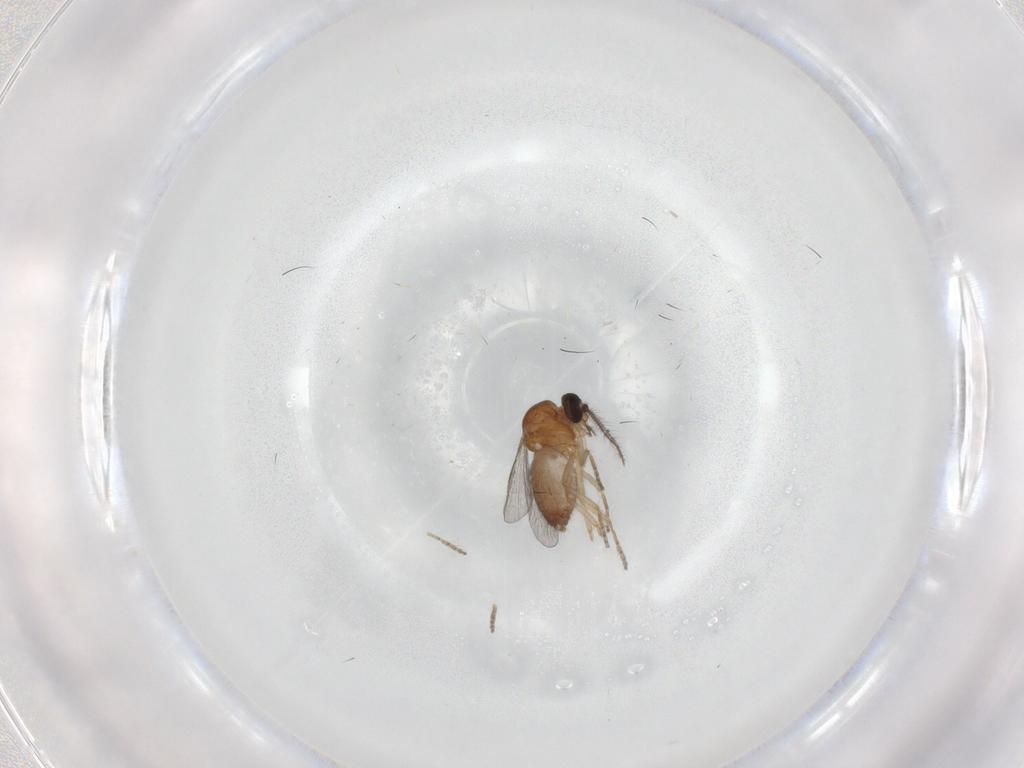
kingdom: Animalia
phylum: Arthropoda
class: Insecta
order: Diptera
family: Ceratopogonidae
